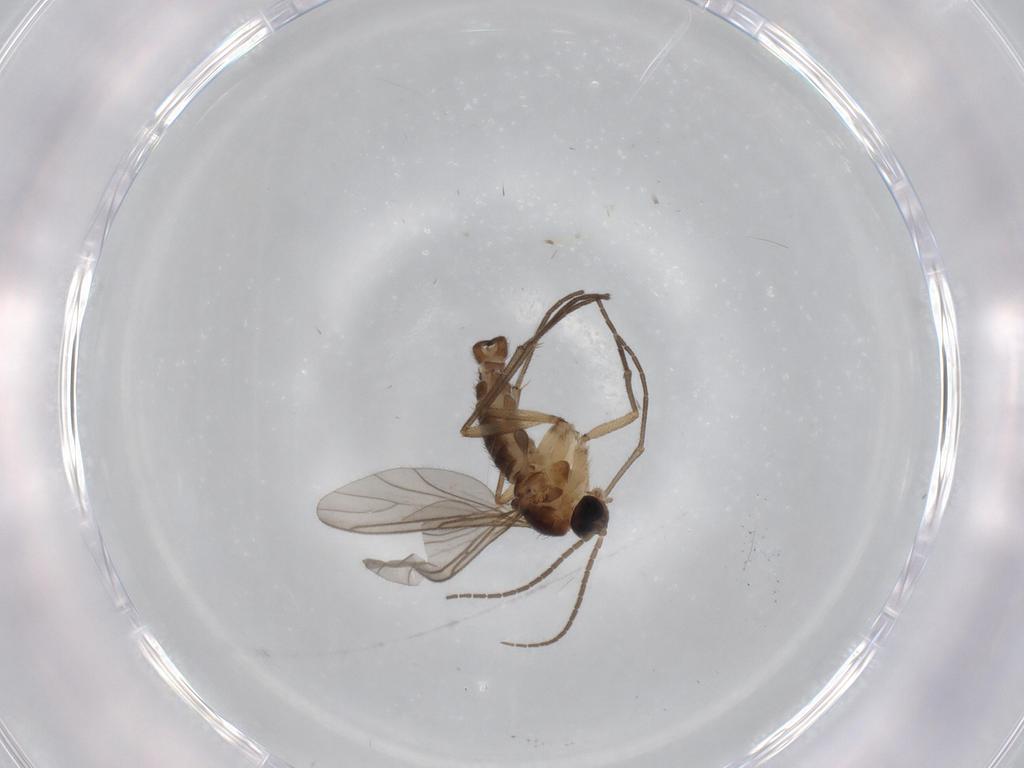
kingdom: Animalia
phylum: Arthropoda
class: Insecta
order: Diptera
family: Sciaridae
